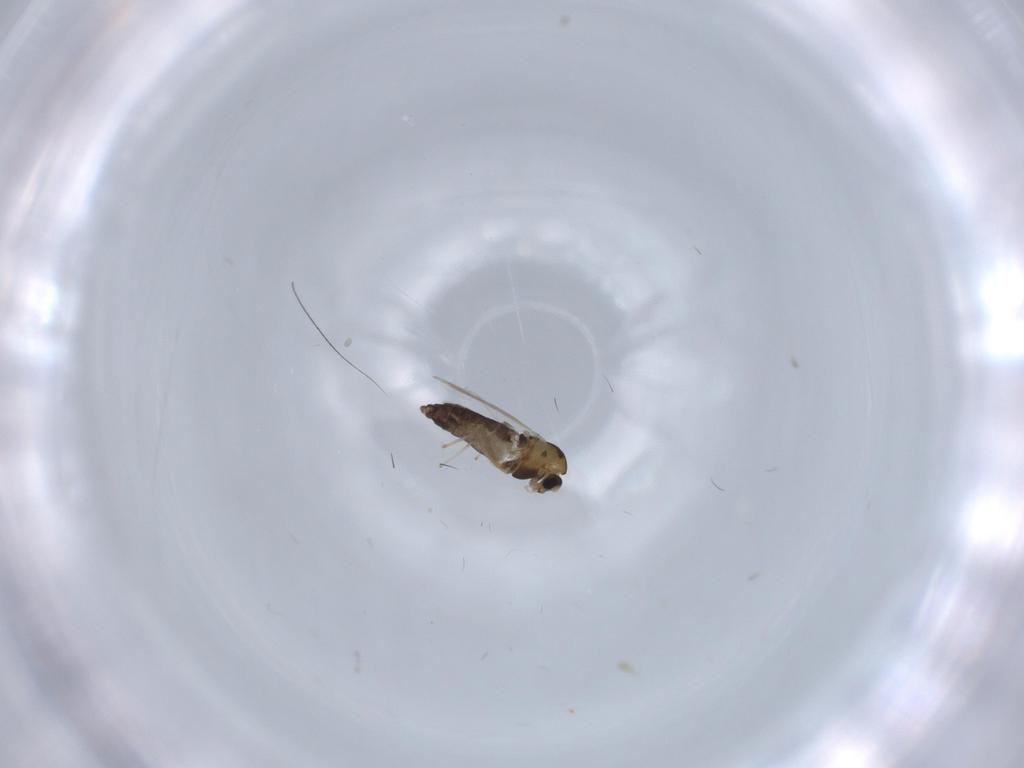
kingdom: Animalia
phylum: Arthropoda
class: Insecta
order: Diptera
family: Chironomidae
